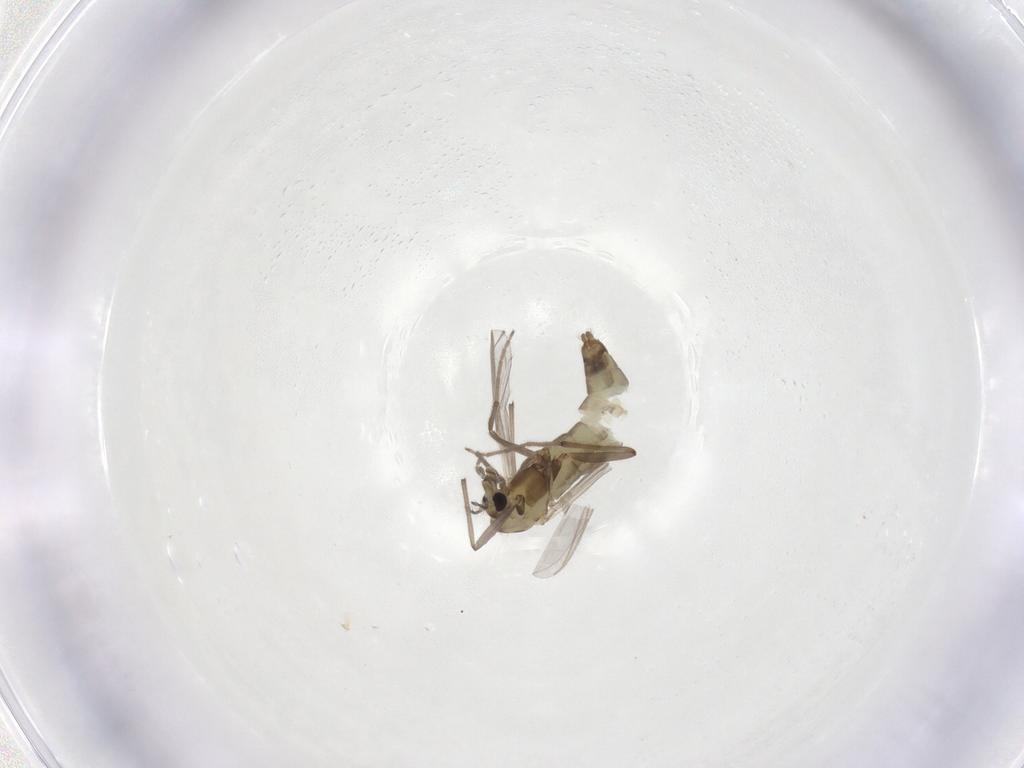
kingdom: Animalia
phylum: Arthropoda
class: Insecta
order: Diptera
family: Chironomidae
